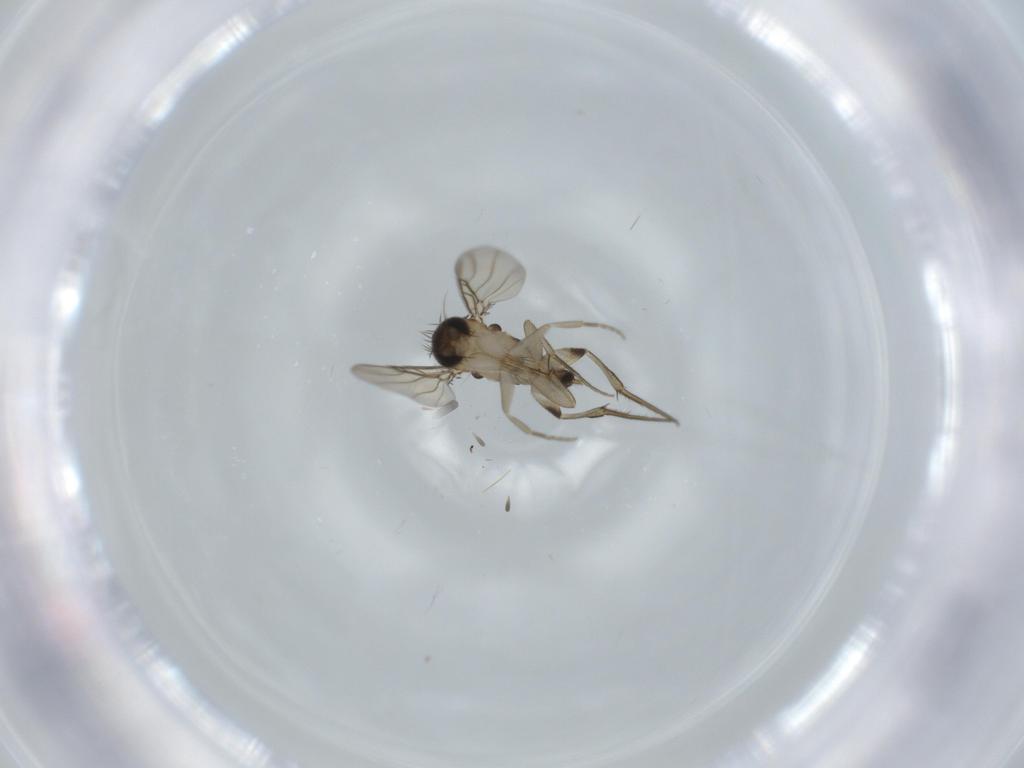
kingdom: Animalia
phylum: Arthropoda
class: Insecta
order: Diptera
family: Phoridae
